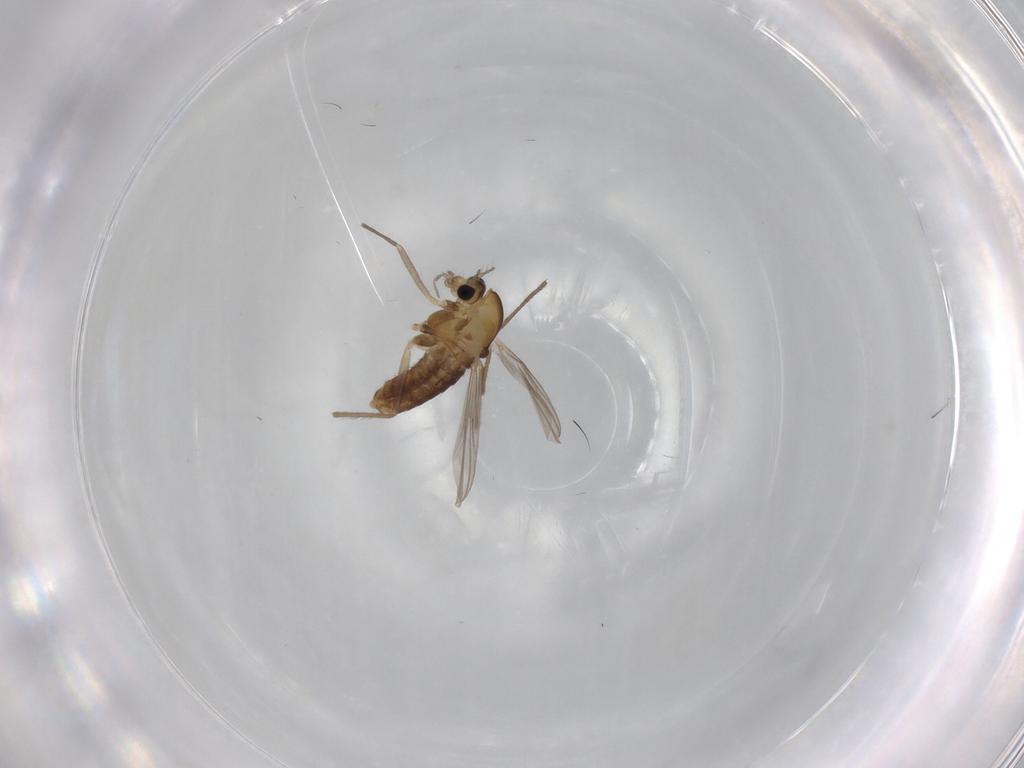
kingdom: Animalia
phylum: Arthropoda
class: Insecta
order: Diptera
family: Chironomidae
